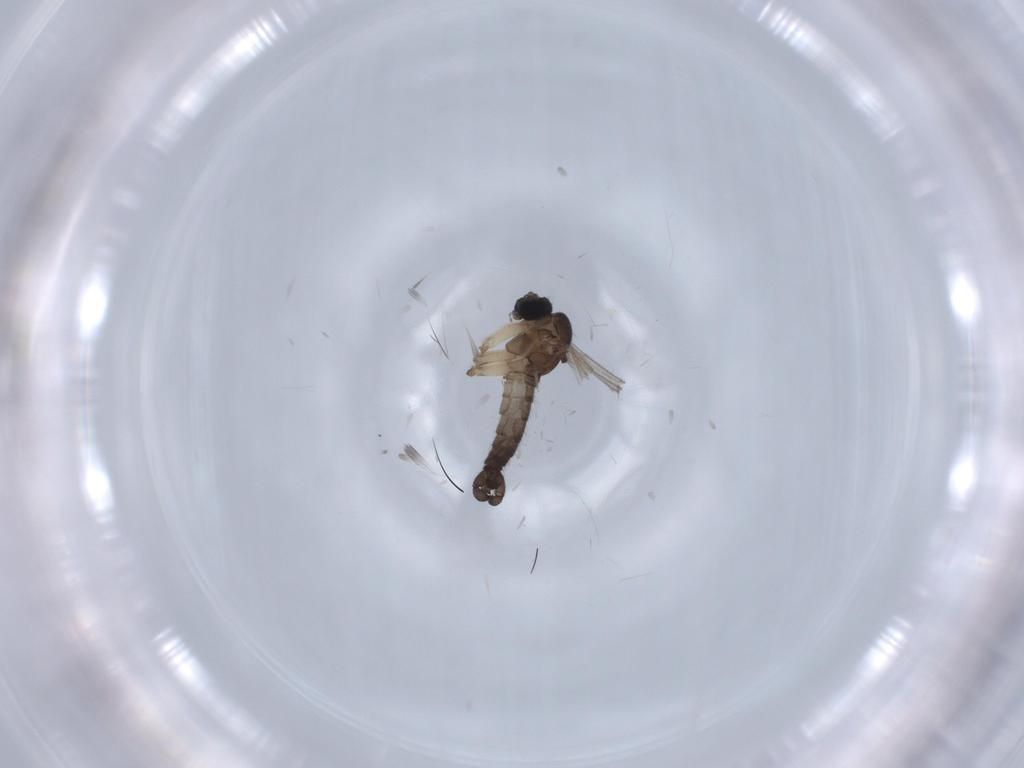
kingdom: Animalia
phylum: Arthropoda
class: Insecta
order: Diptera
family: Sciaridae
